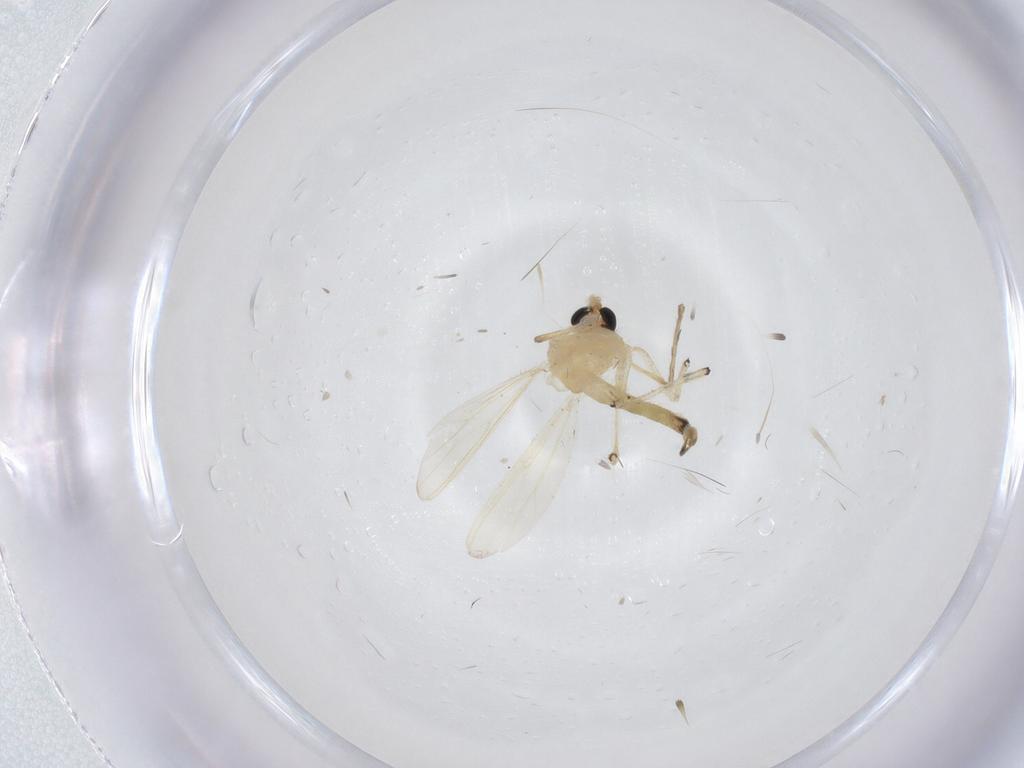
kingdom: Animalia
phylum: Arthropoda
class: Insecta
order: Diptera
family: Chironomidae
